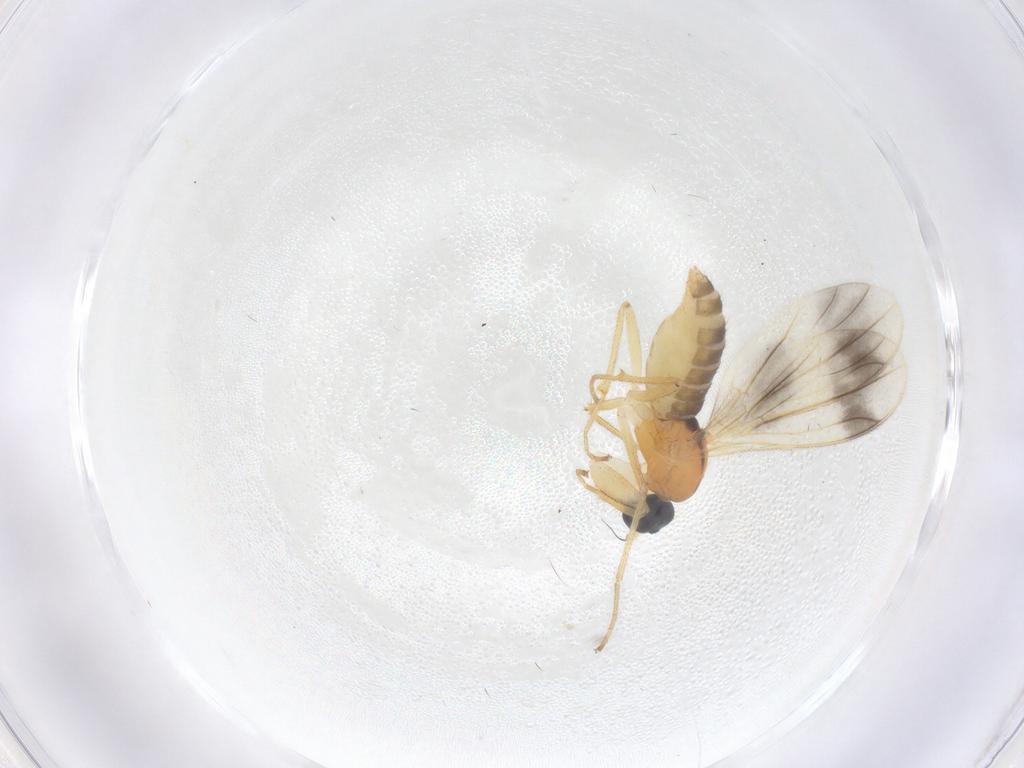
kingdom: Animalia
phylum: Arthropoda
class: Insecta
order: Diptera
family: Empididae
